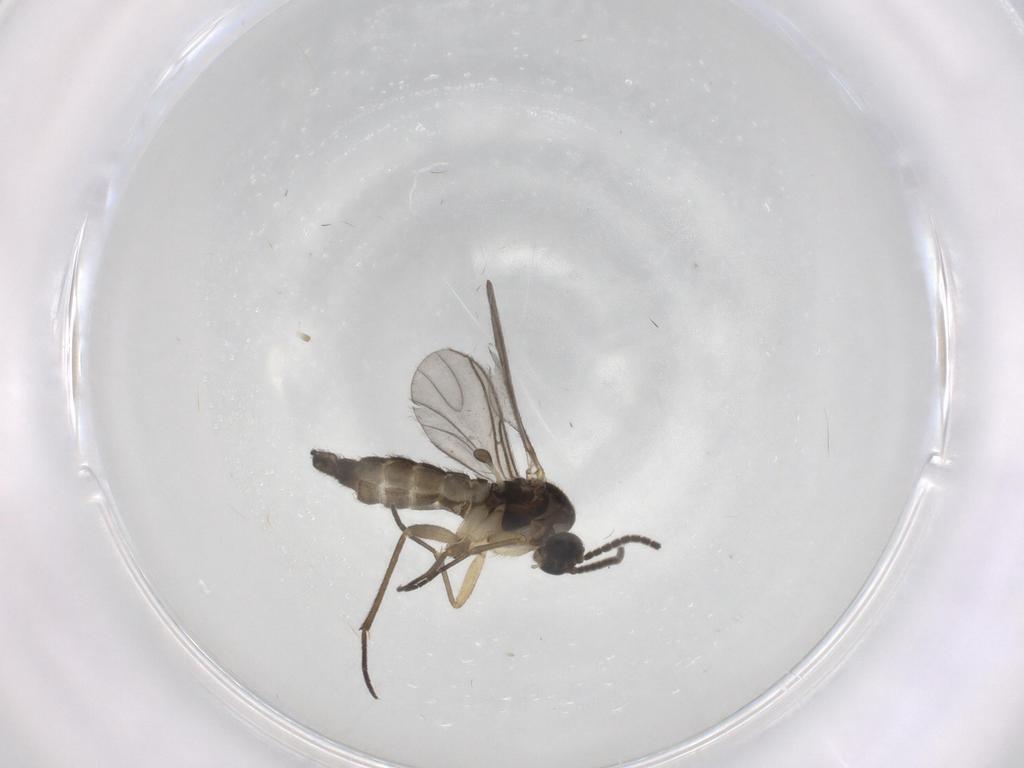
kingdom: Animalia
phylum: Arthropoda
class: Insecta
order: Diptera
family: Sciaridae
